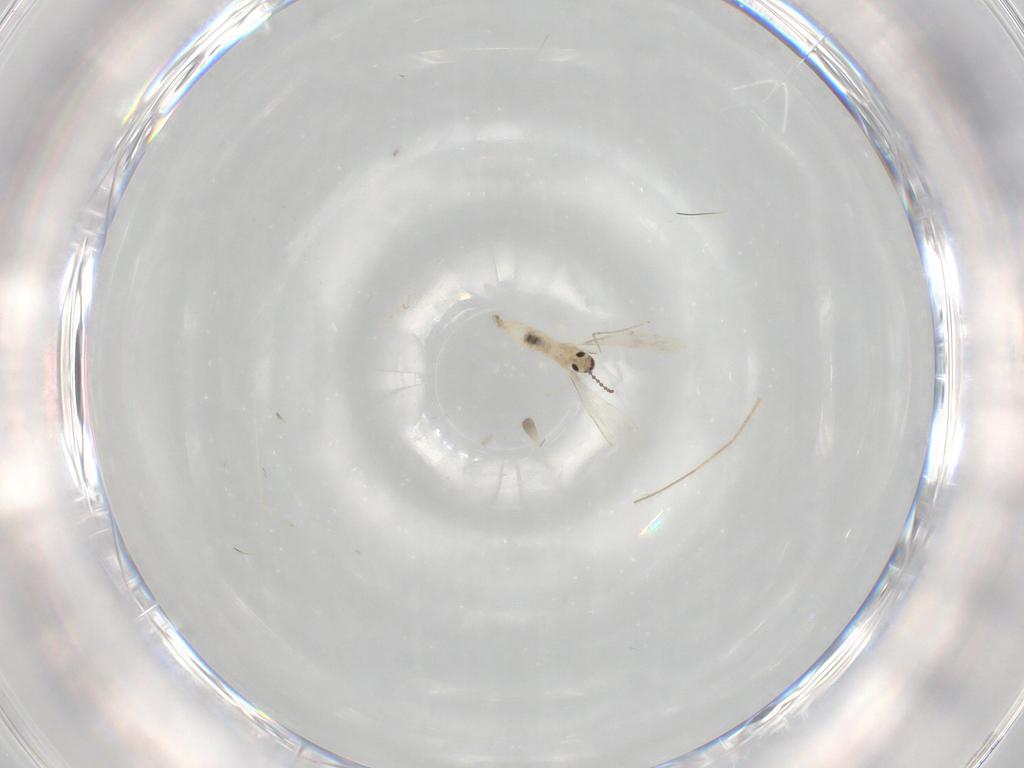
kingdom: Animalia
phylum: Arthropoda
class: Insecta
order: Diptera
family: Cecidomyiidae
